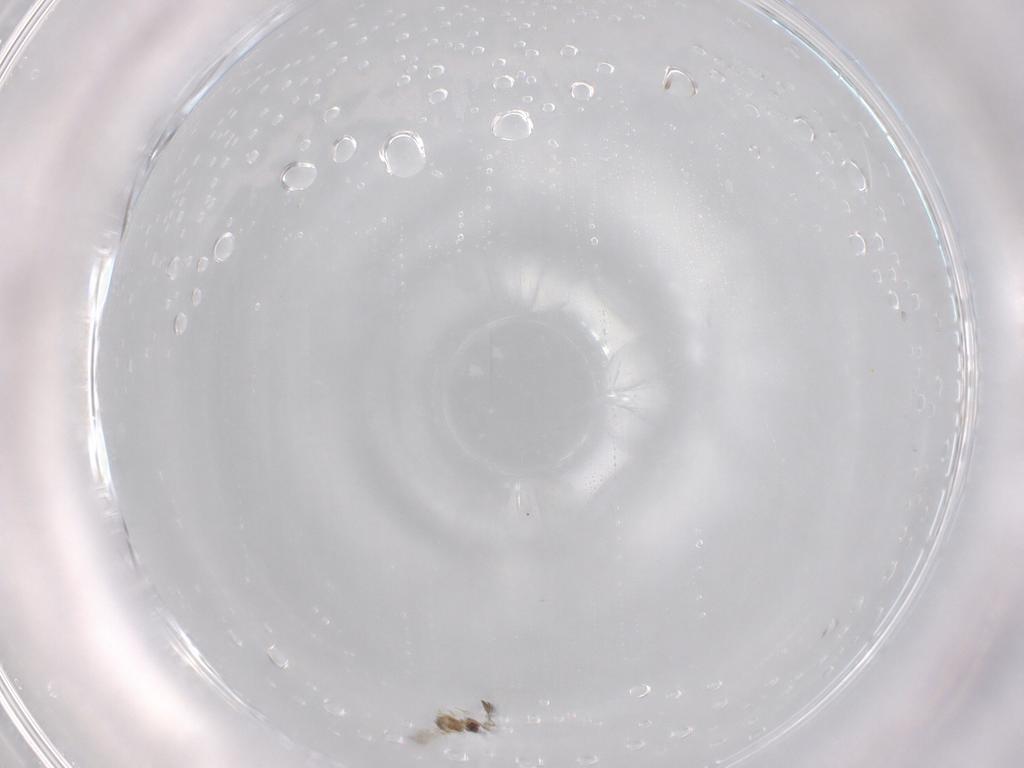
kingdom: Animalia
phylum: Arthropoda
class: Insecta
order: Hymenoptera
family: Mymaridae
